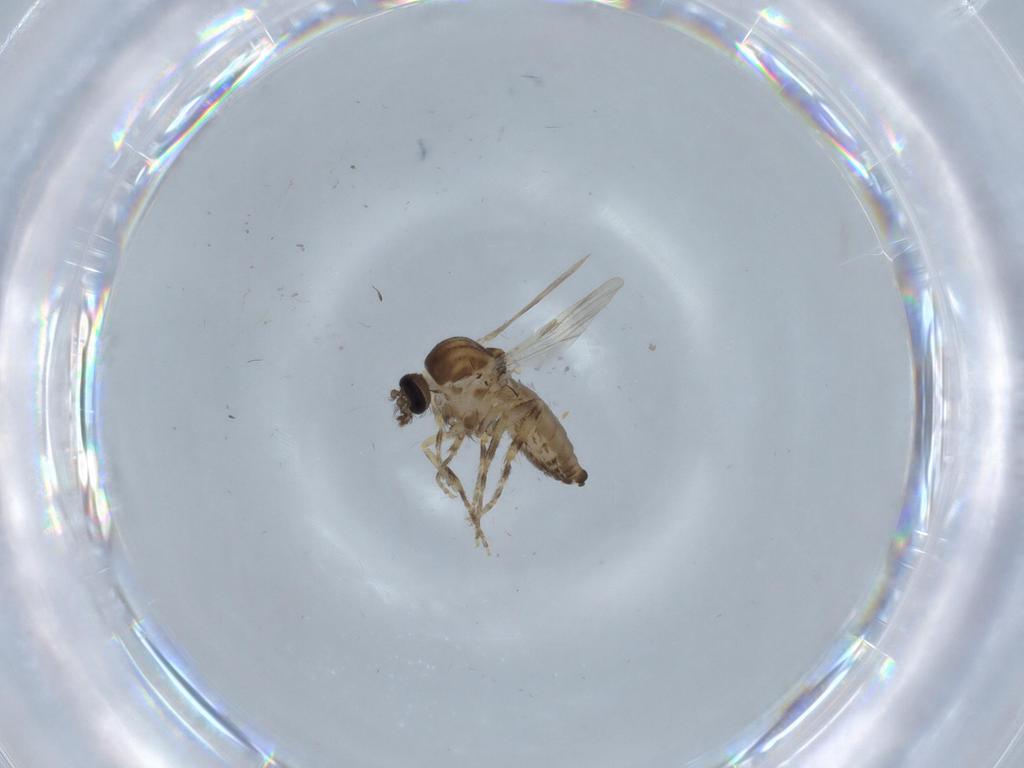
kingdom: Animalia
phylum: Arthropoda
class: Insecta
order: Diptera
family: Ceratopogonidae
